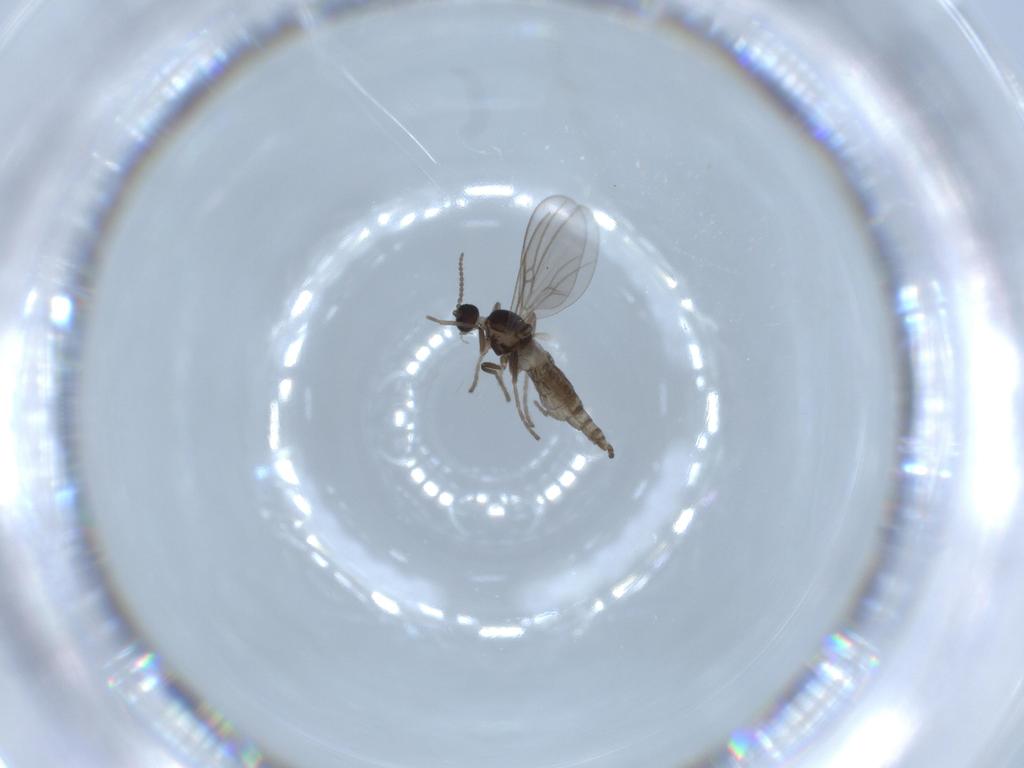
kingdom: Animalia
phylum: Arthropoda
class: Insecta
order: Diptera
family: Cecidomyiidae
